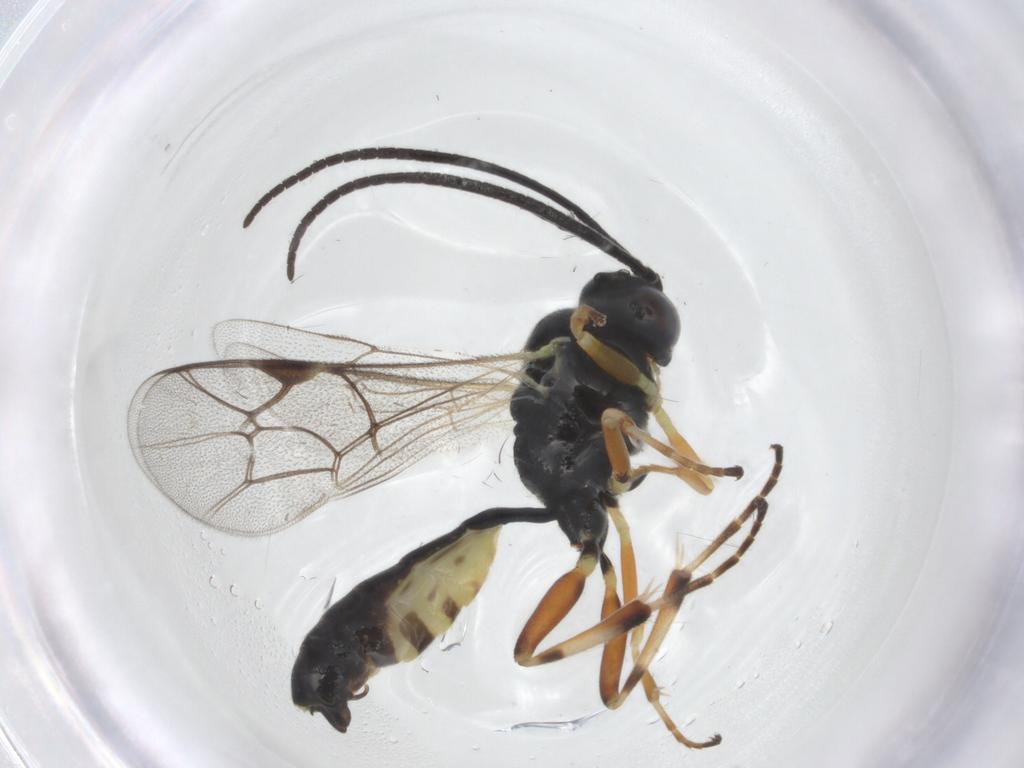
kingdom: Animalia
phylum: Arthropoda
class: Insecta
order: Hymenoptera
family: Ichneumonidae
